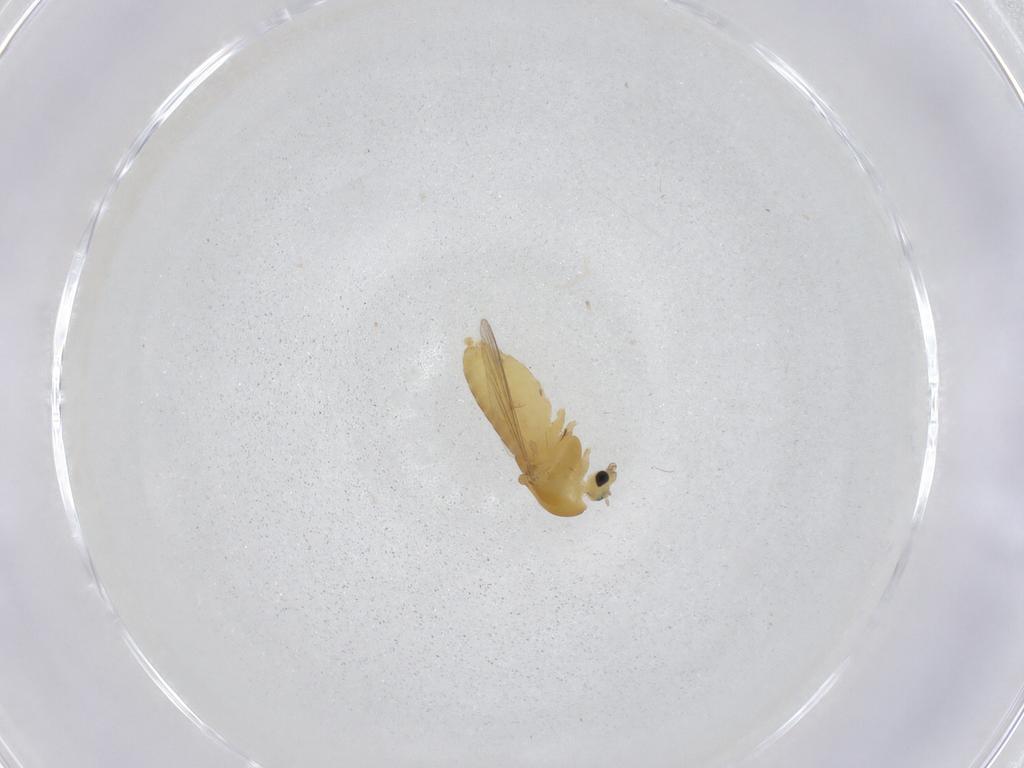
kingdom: Animalia
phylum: Arthropoda
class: Insecta
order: Diptera
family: Chironomidae
